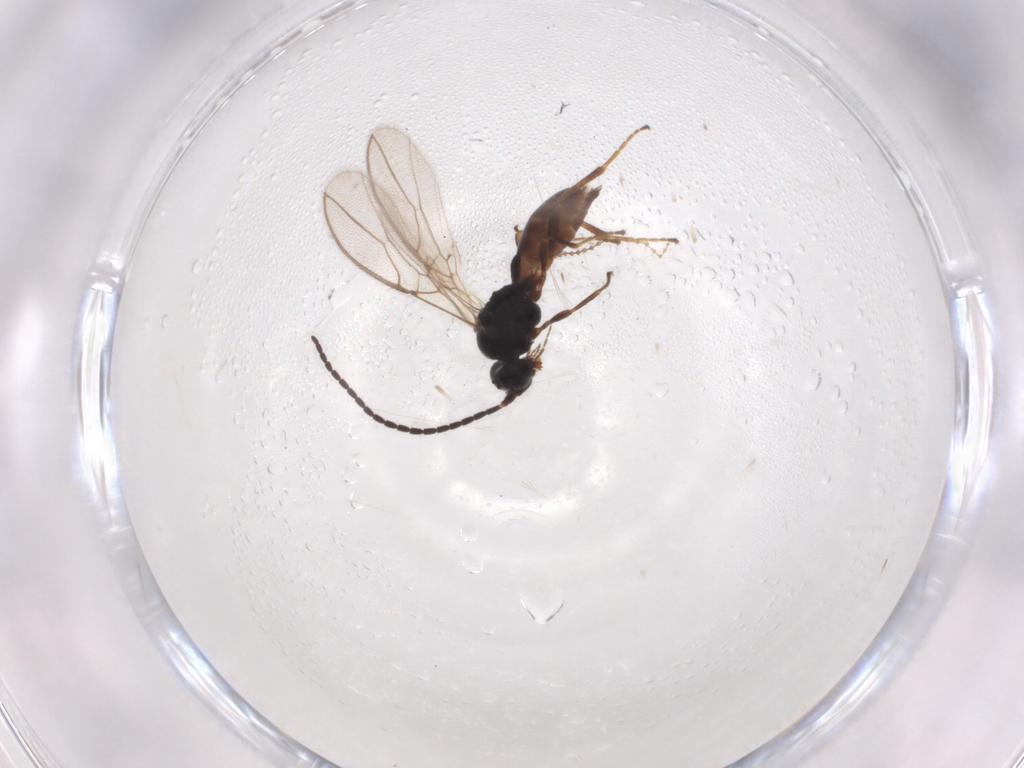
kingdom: Animalia
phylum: Arthropoda
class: Insecta
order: Hymenoptera
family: Braconidae
